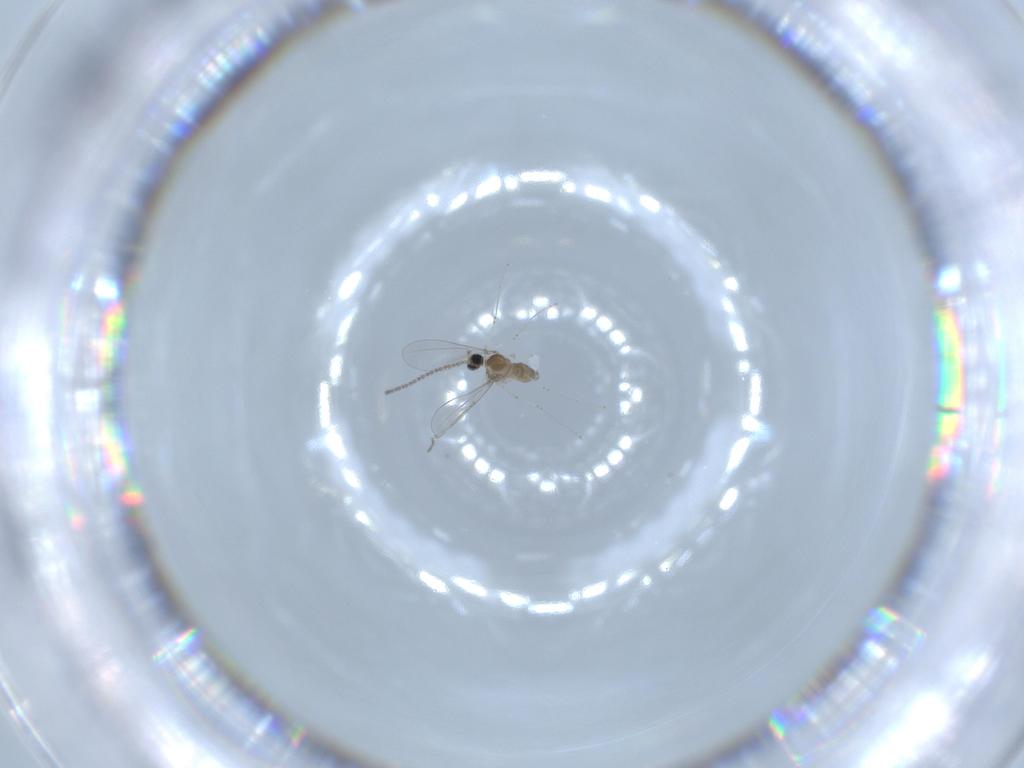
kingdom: Animalia
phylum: Arthropoda
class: Insecta
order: Diptera
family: Cecidomyiidae
